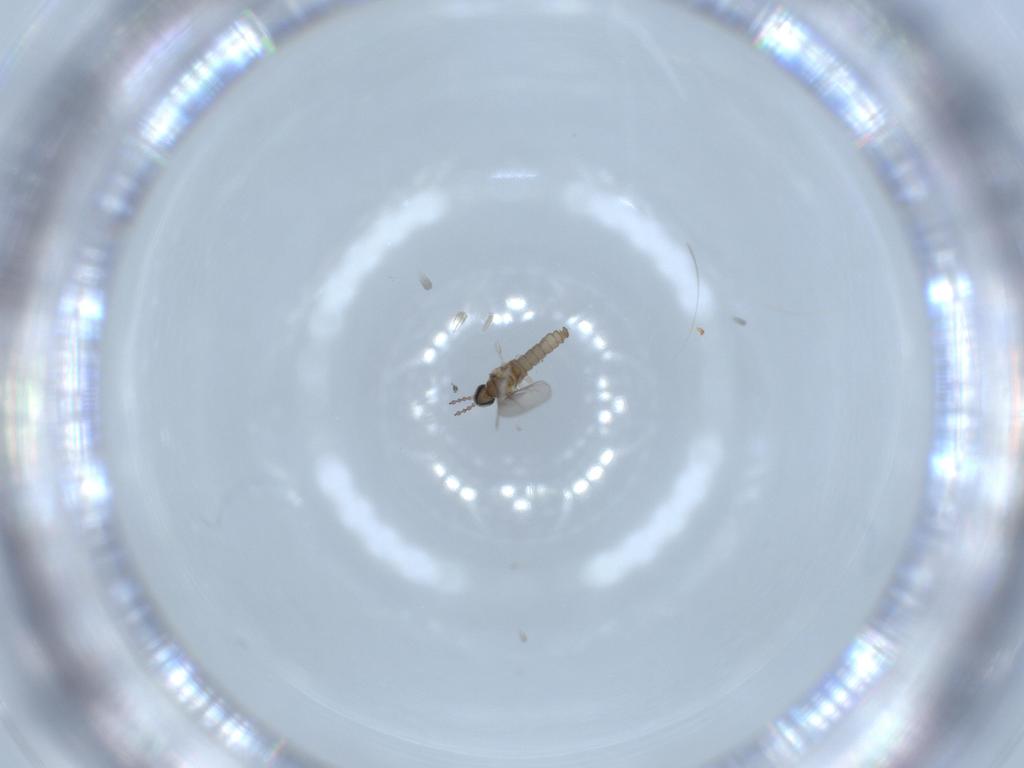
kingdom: Animalia
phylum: Arthropoda
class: Insecta
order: Diptera
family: Cecidomyiidae
